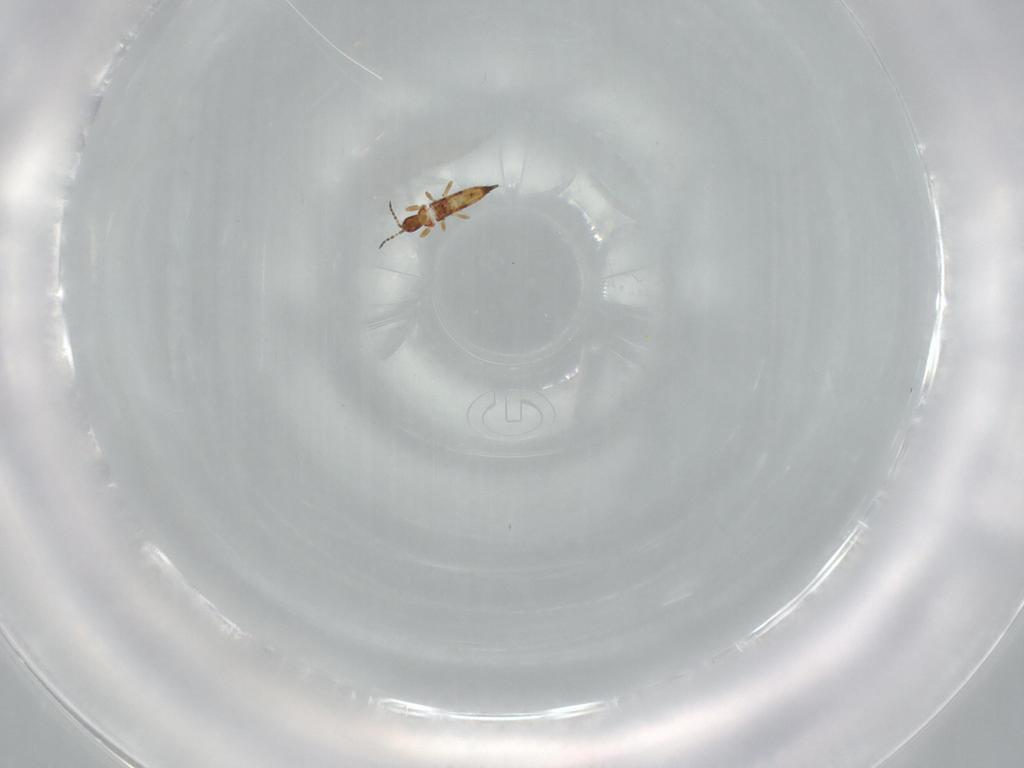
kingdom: Animalia
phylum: Arthropoda
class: Insecta
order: Thysanoptera
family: Phlaeothripidae
